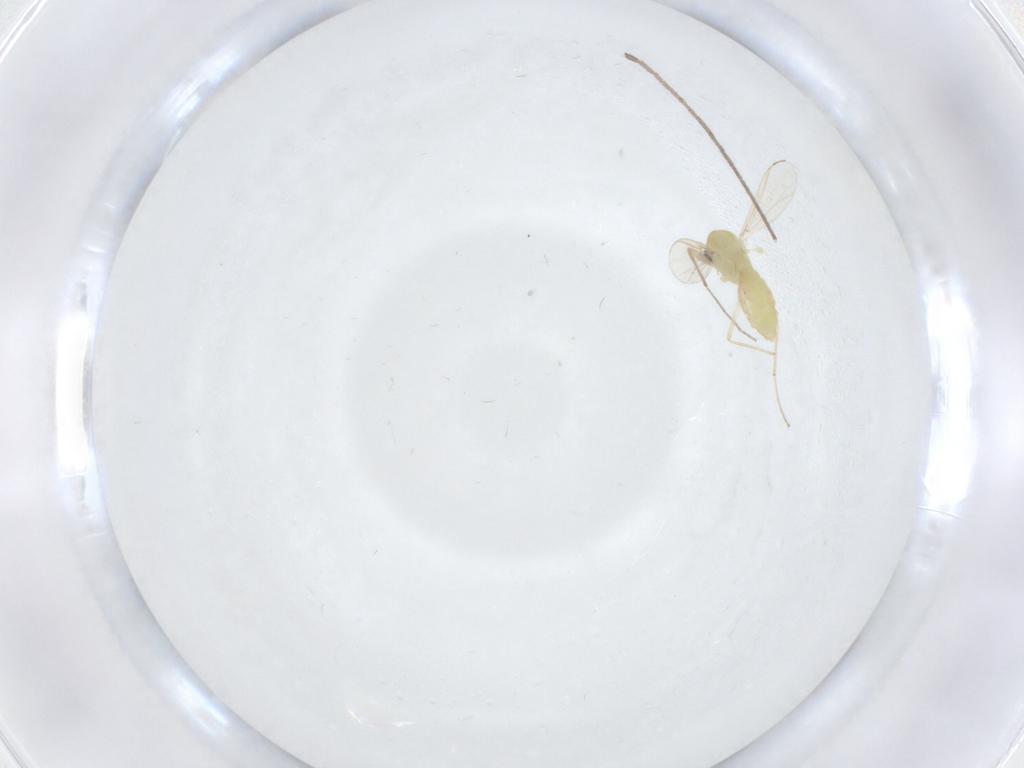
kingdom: Animalia
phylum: Arthropoda
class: Insecta
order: Diptera
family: Chironomidae
